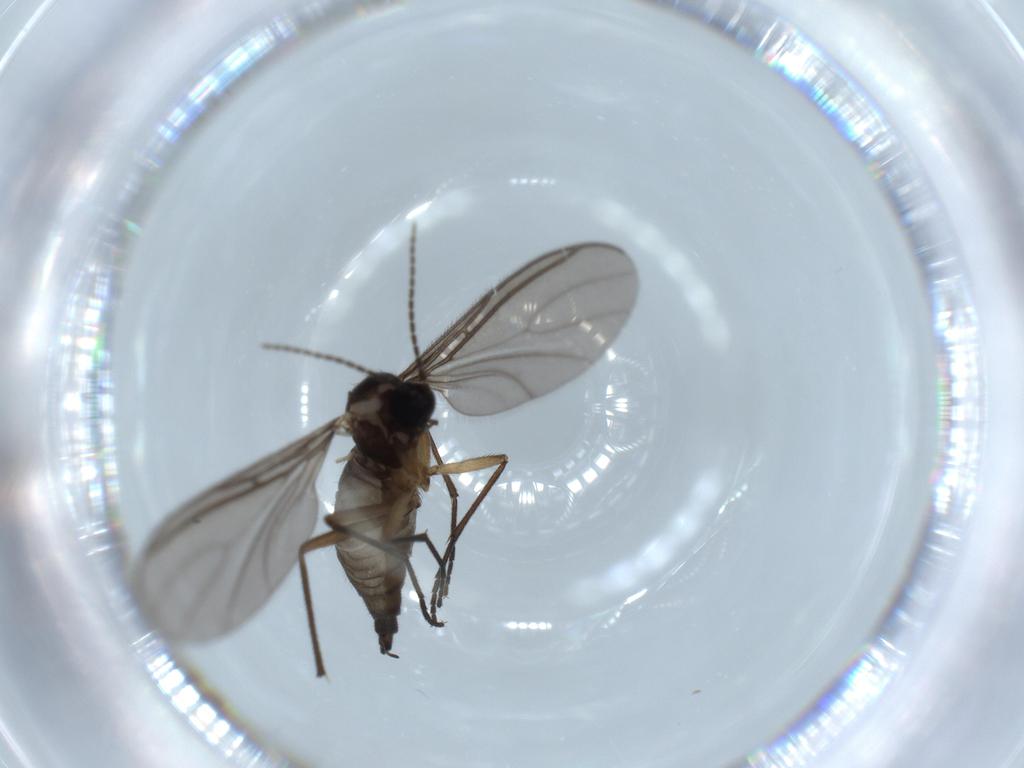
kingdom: Animalia
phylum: Arthropoda
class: Insecta
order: Diptera
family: Sciaridae
